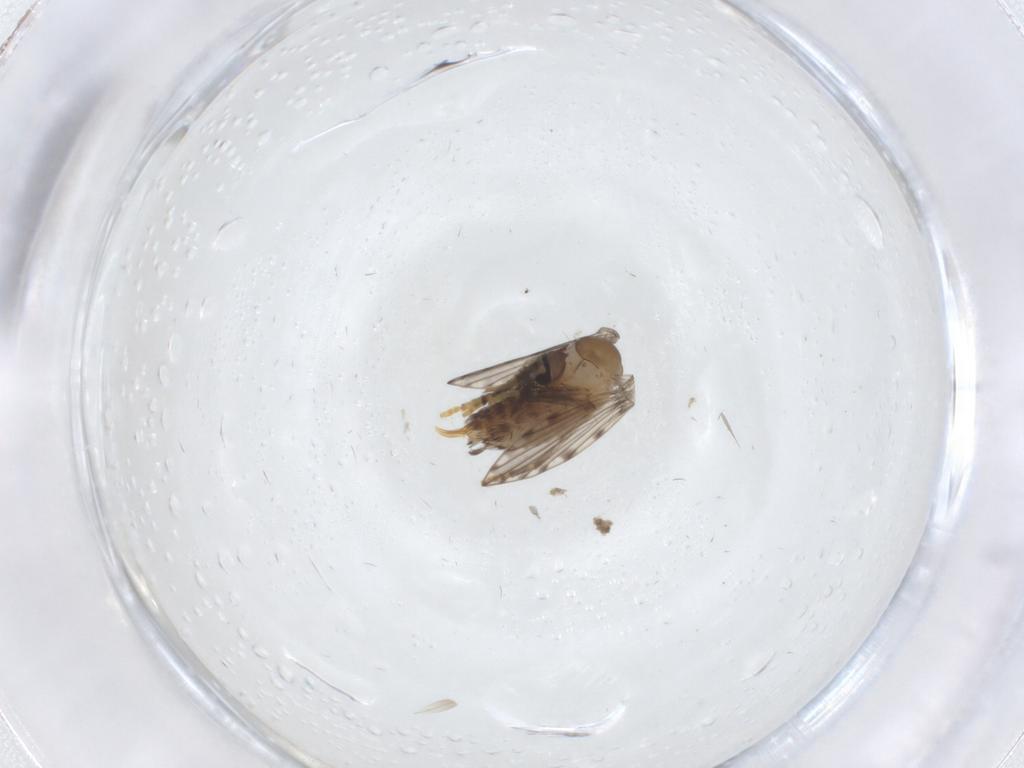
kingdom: Animalia
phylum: Arthropoda
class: Insecta
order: Diptera
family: Psychodidae
